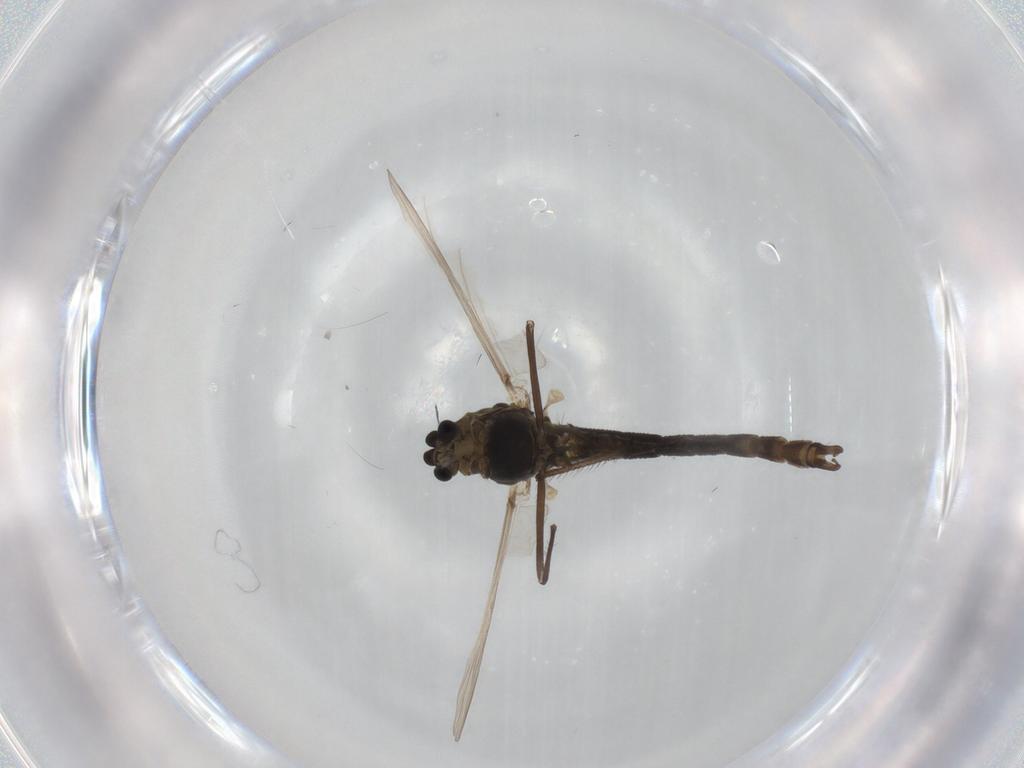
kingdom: Animalia
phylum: Arthropoda
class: Insecta
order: Diptera
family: Chironomidae
